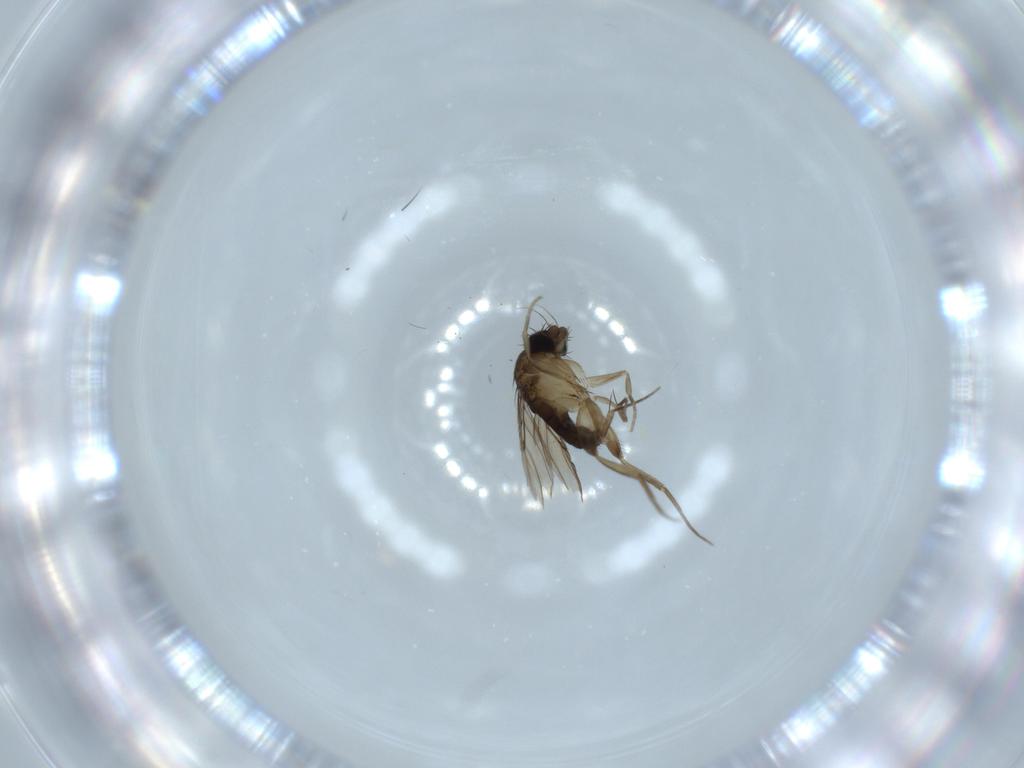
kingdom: Animalia
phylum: Arthropoda
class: Insecta
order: Diptera
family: Phoridae
